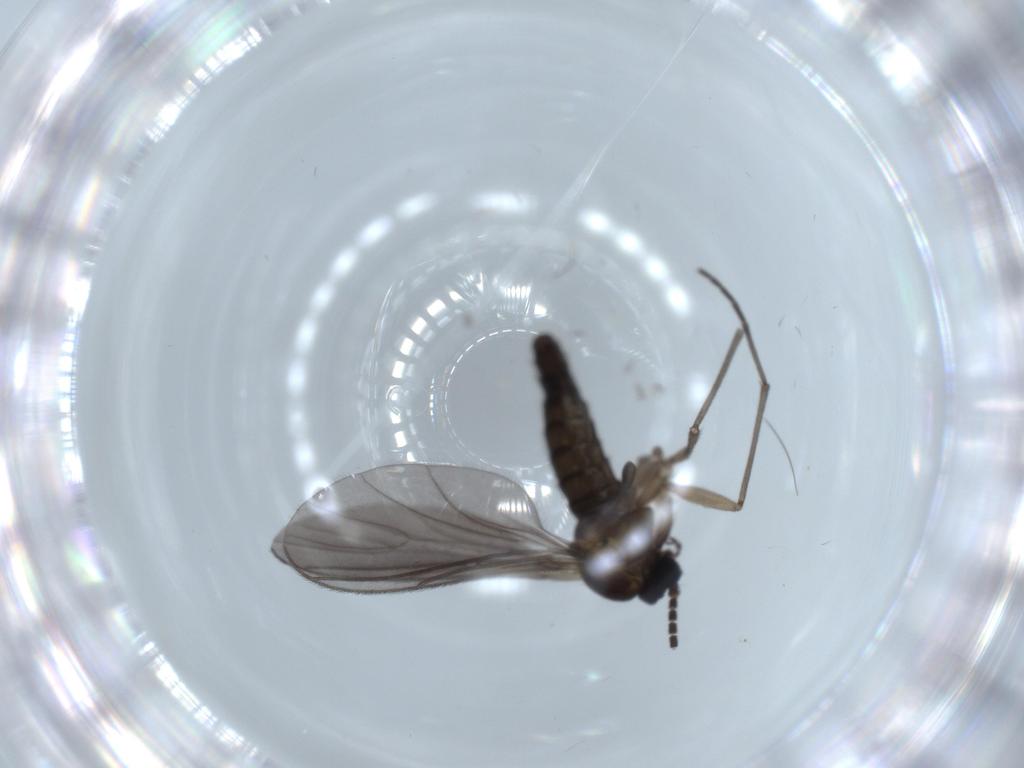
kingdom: Animalia
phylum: Arthropoda
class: Insecta
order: Diptera
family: Sciaridae
